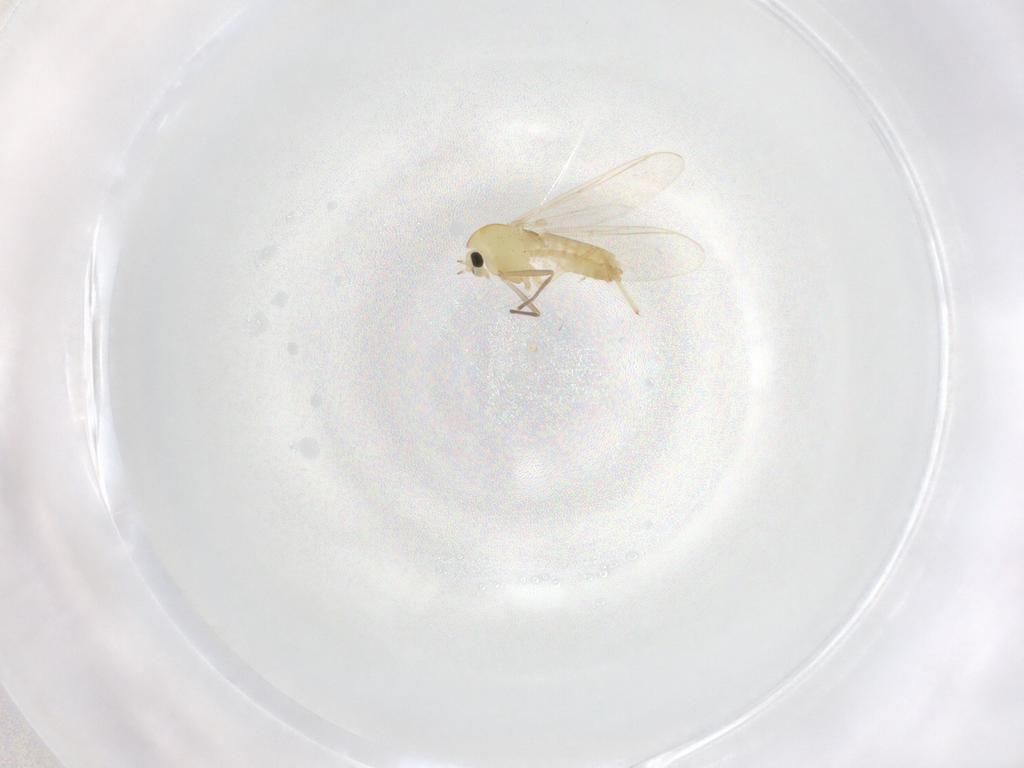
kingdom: Animalia
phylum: Arthropoda
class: Insecta
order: Diptera
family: Chironomidae
